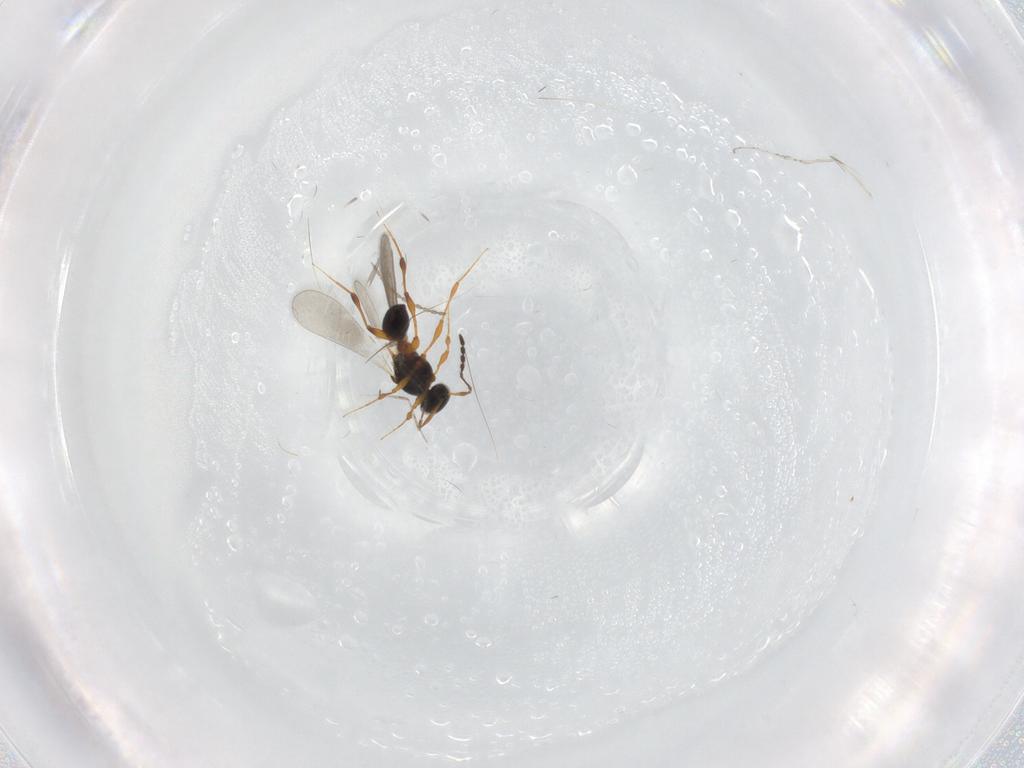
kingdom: Animalia
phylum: Arthropoda
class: Insecta
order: Hymenoptera
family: Platygastridae
